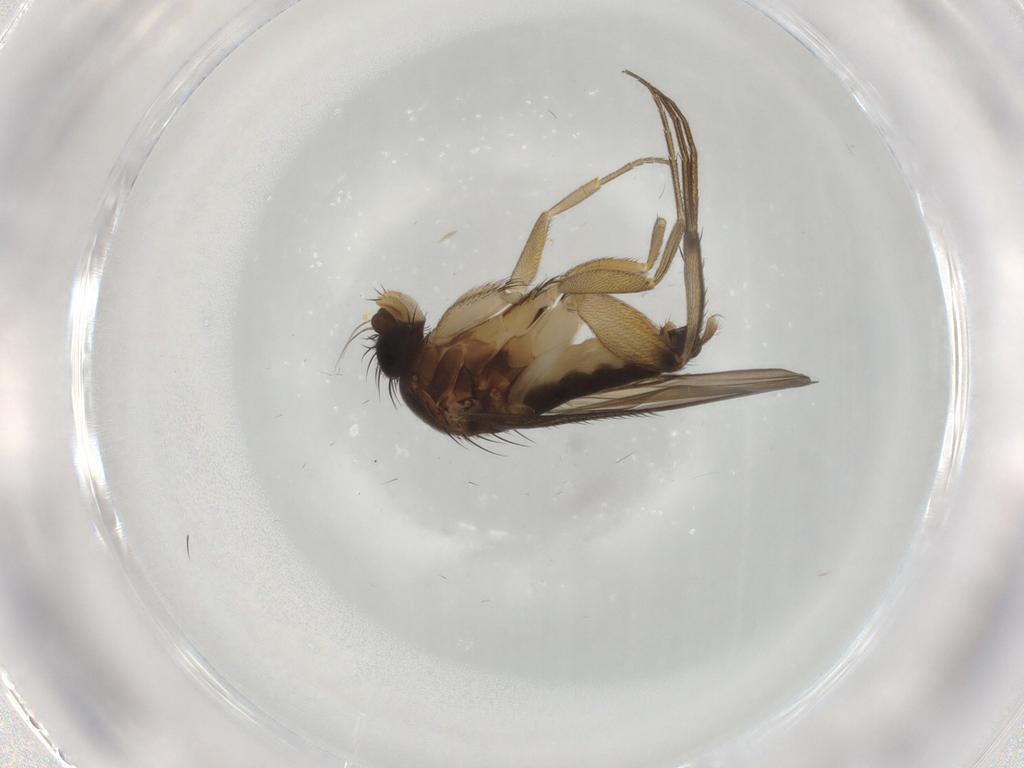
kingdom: Animalia
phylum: Arthropoda
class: Insecta
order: Diptera
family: Phoridae
